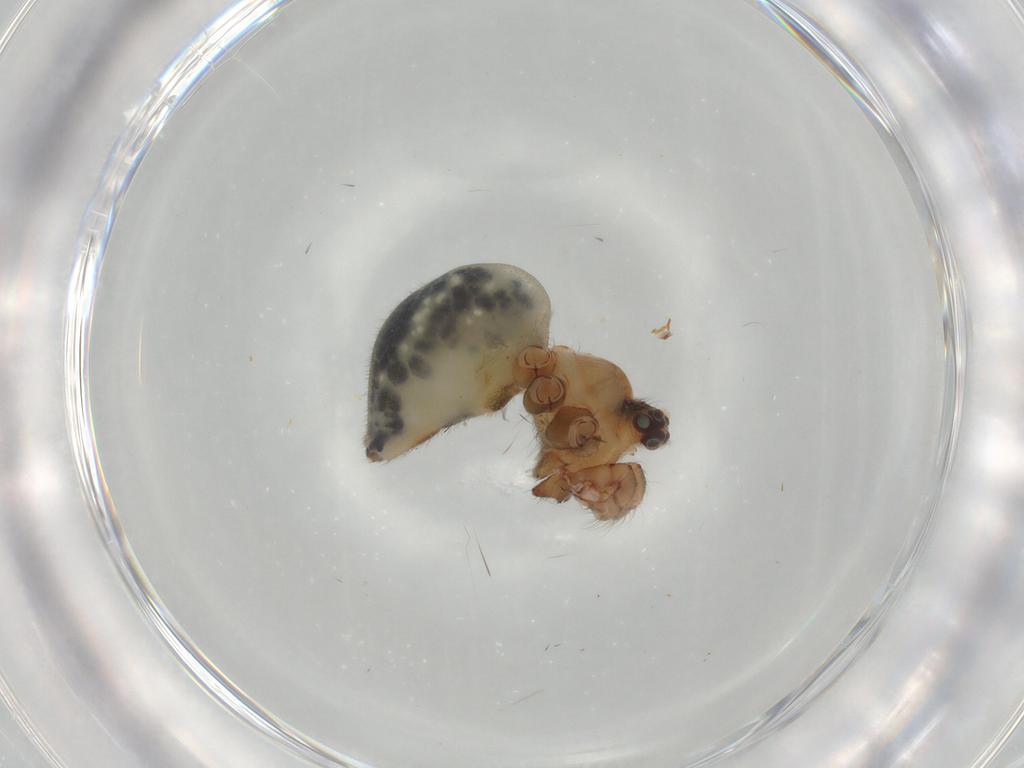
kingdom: Animalia
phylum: Arthropoda
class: Arachnida
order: Araneae
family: Pholcidae
